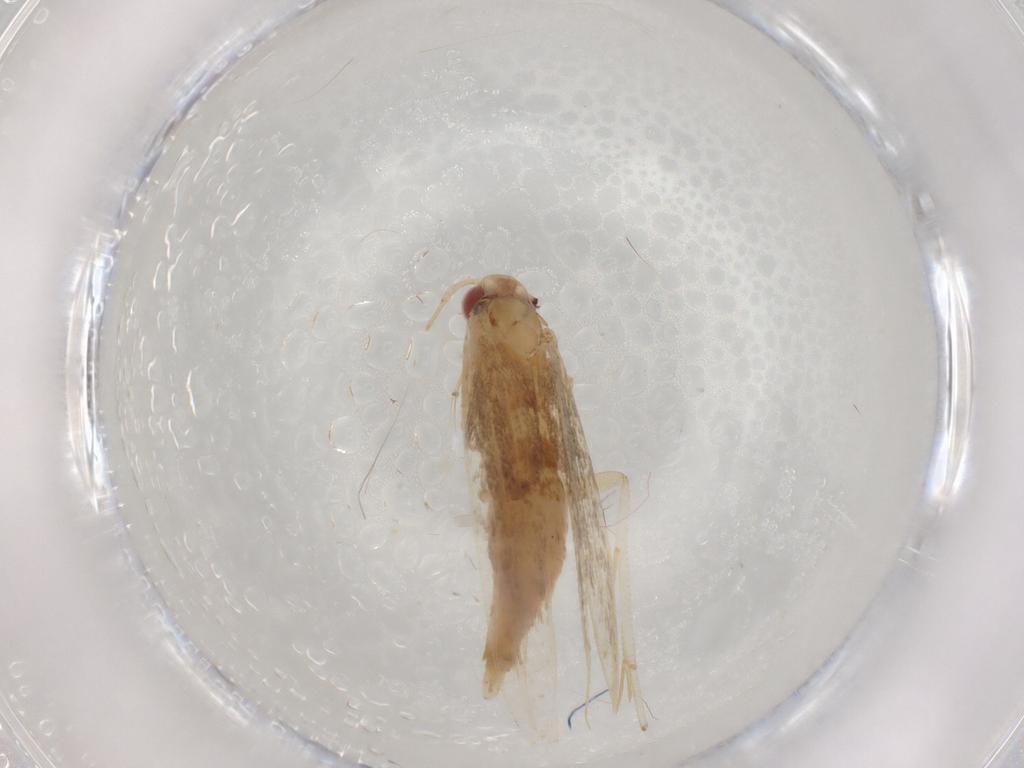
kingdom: Animalia
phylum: Arthropoda
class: Insecta
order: Lepidoptera
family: Cosmopterigidae
